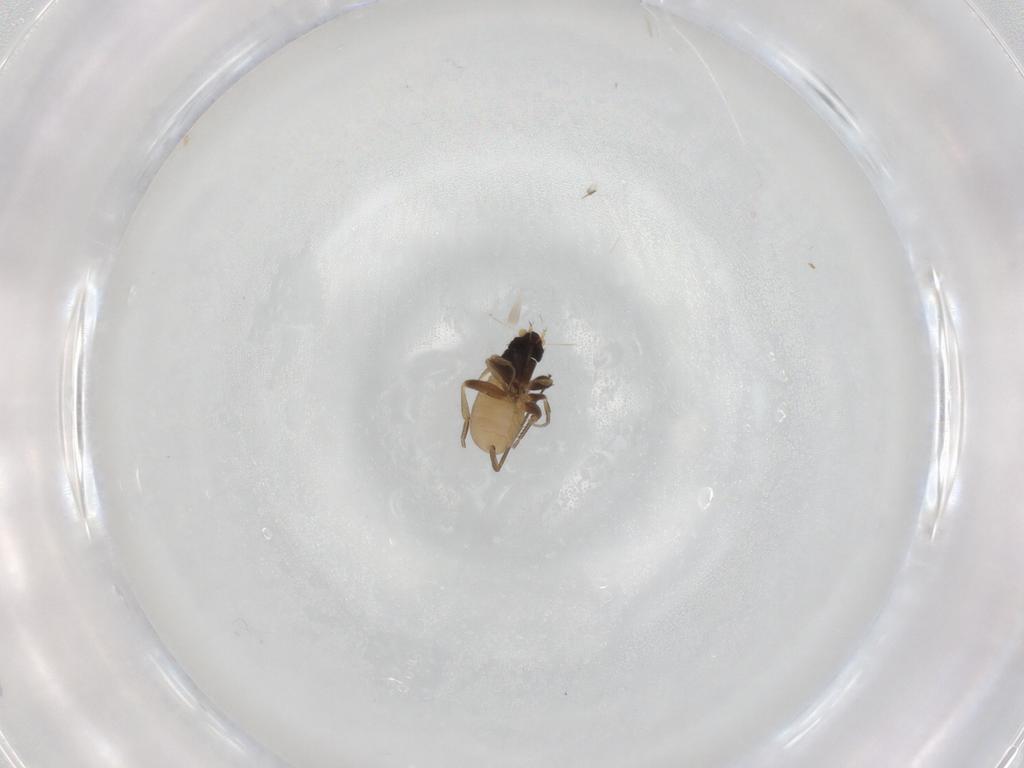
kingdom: Animalia
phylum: Arthropoda
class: Insecta
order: Diptera
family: Phoridae
